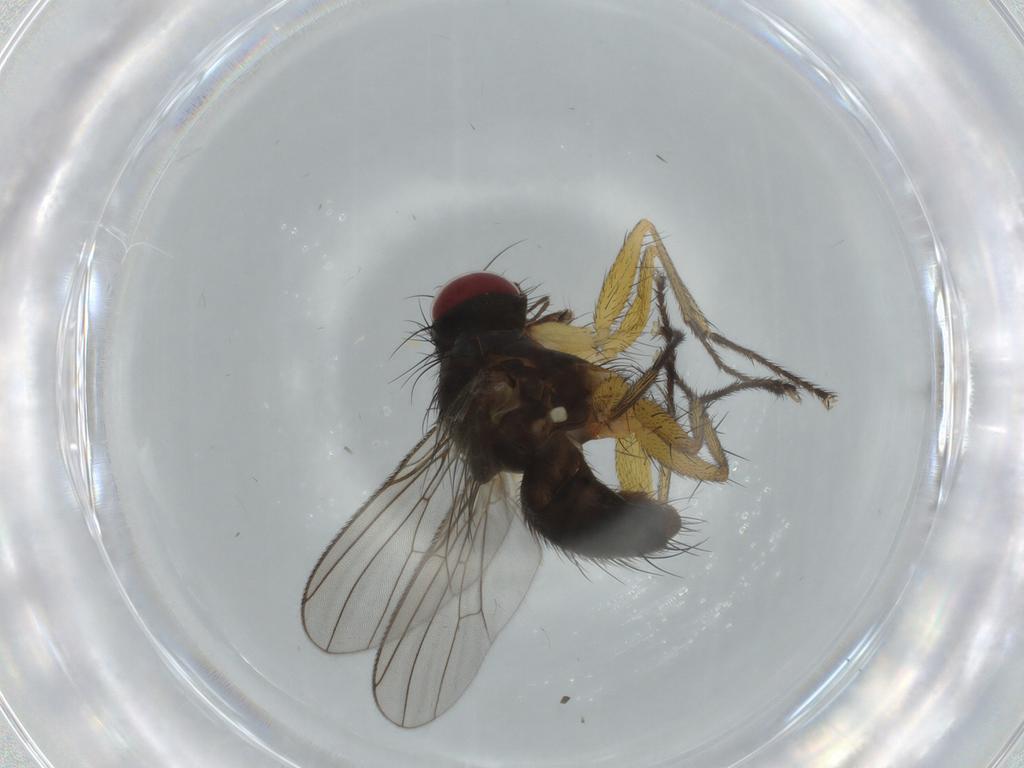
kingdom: Animalia
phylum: Arthropoda
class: Insecta
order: Diptera
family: Muscidae
